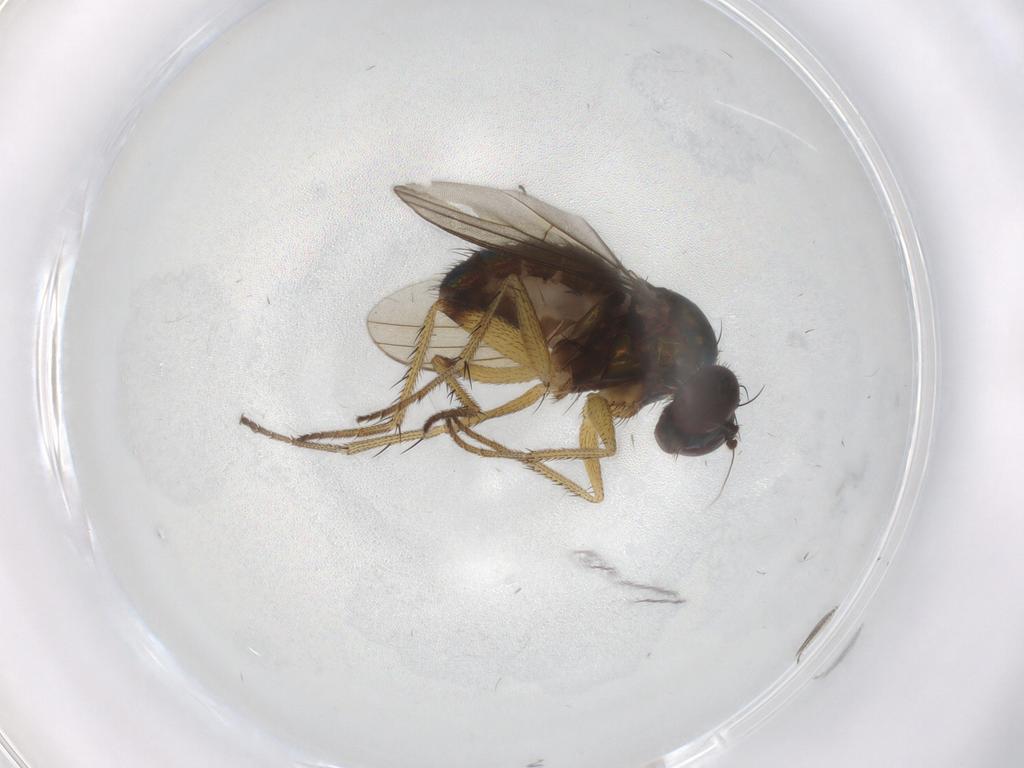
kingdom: Animalia
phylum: Arthropoda
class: Insecta
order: Diptera
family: Dolichopodidae
